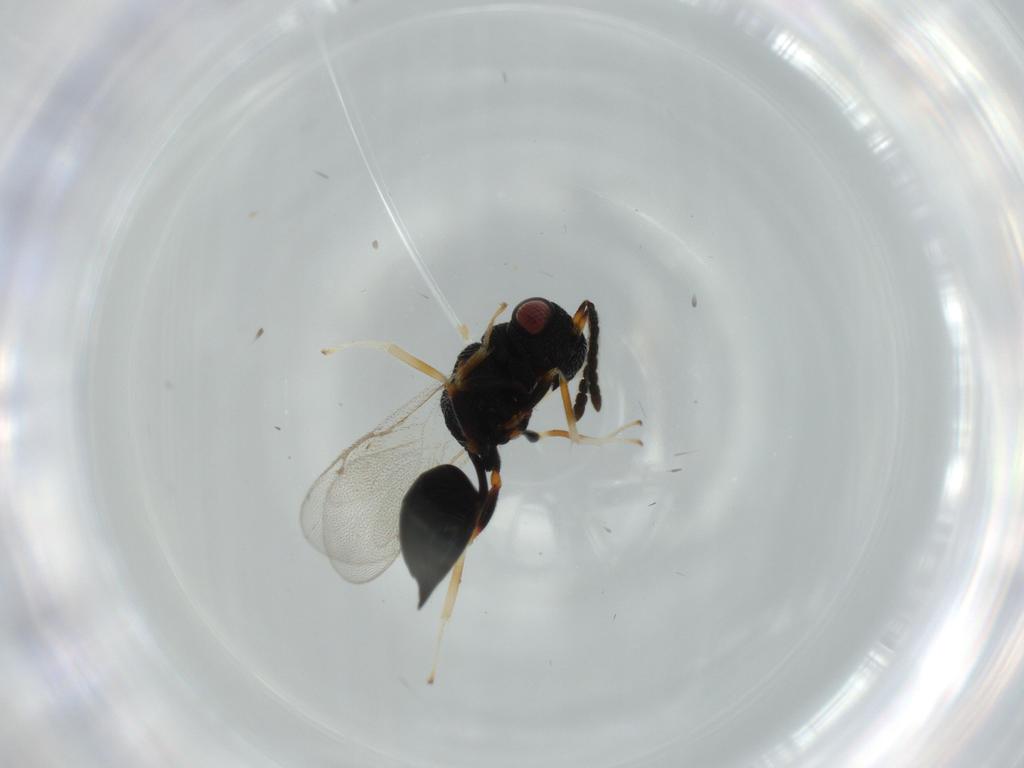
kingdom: Animalia
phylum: Arthropoda
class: Insecta
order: Hymenoptera
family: Eurytomidae
